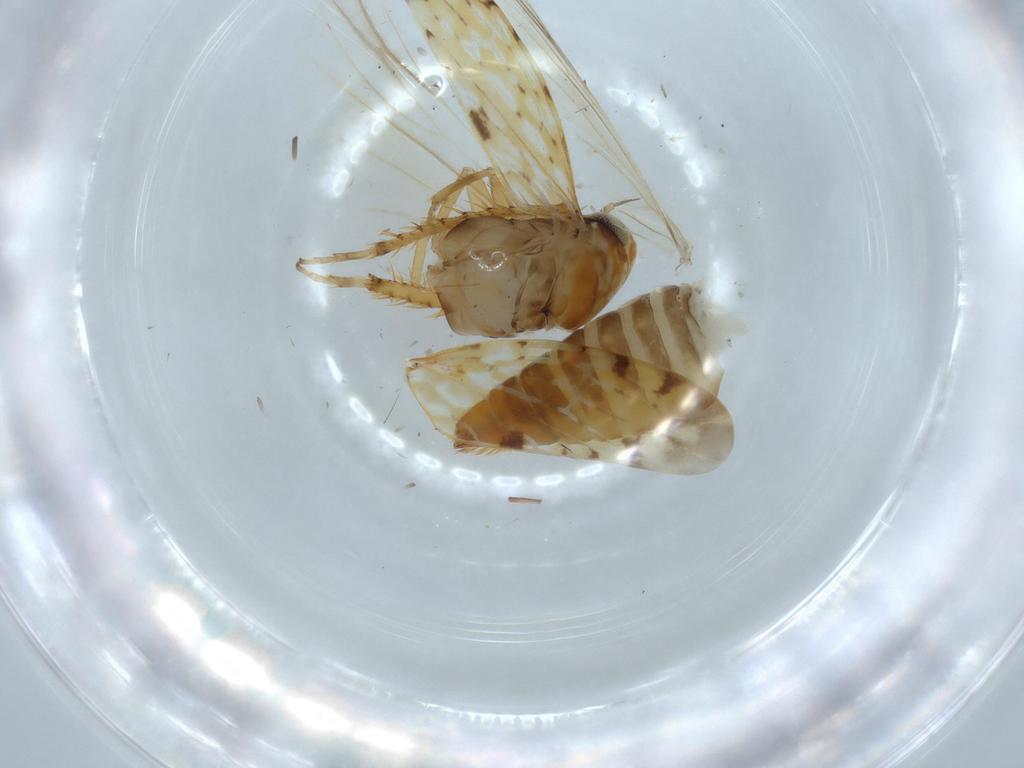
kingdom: Animalia
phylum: Arthropoda
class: Insecta
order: Hemiptera
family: Cicadellidae
